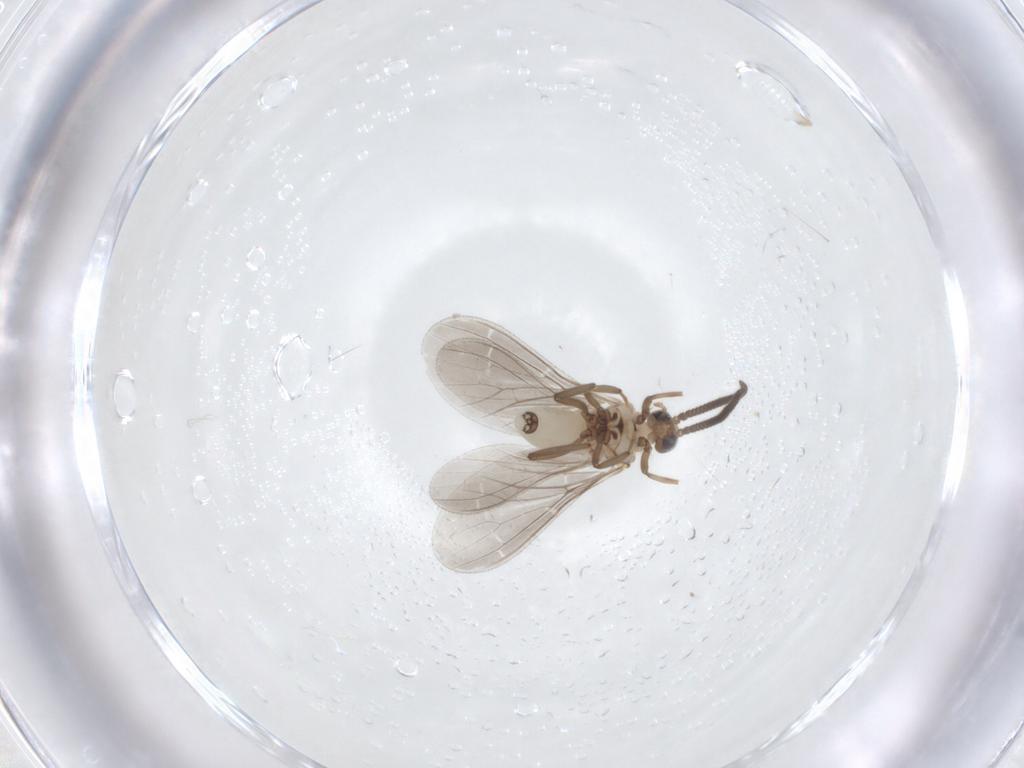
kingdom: Animalia
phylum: Arthropoda
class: Insecta
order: Neuroptera
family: Coniopterygidae
